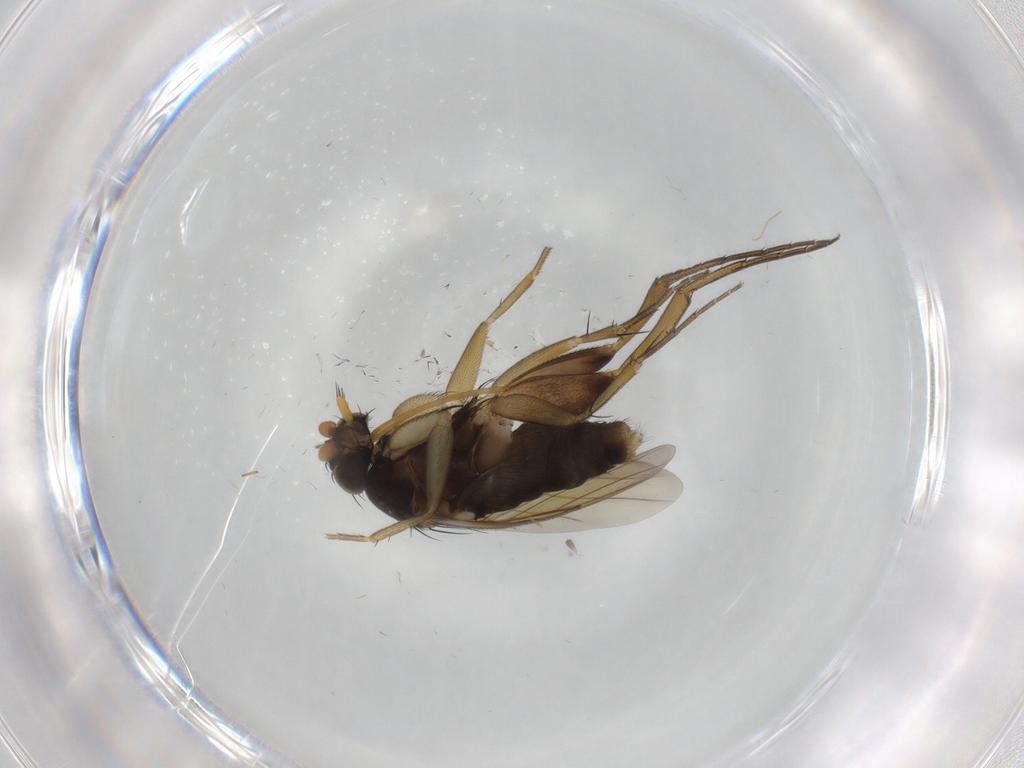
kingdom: Animalia
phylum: Arthropoda
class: Insecta
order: Diptera
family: Phoridae
